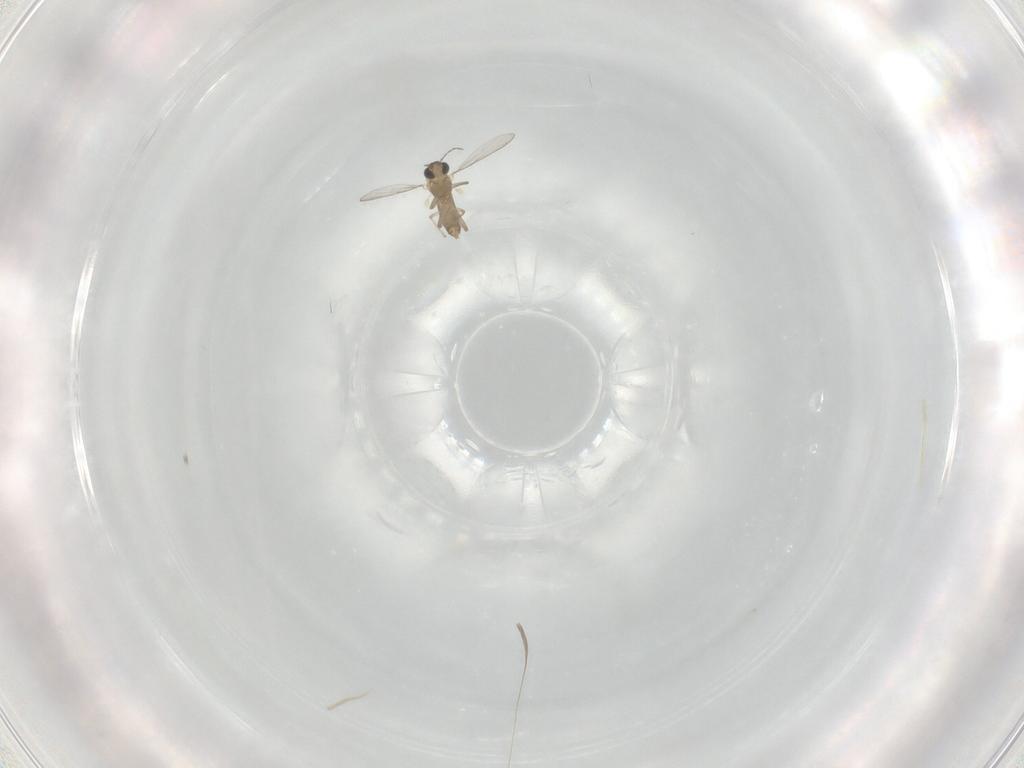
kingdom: Animalia
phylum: Arthropoda
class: Insecta
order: Diptera
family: Chironomidae
